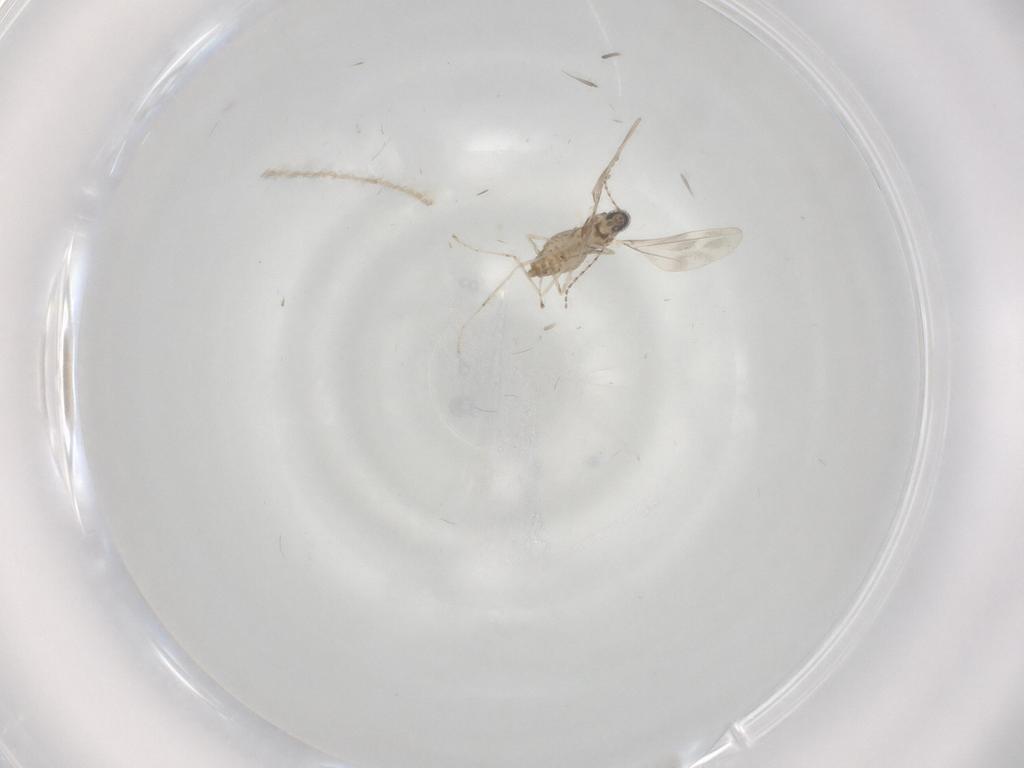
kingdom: Animalia
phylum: Arthropoda
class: Insecta
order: Diptera
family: Cecidomyiidae
